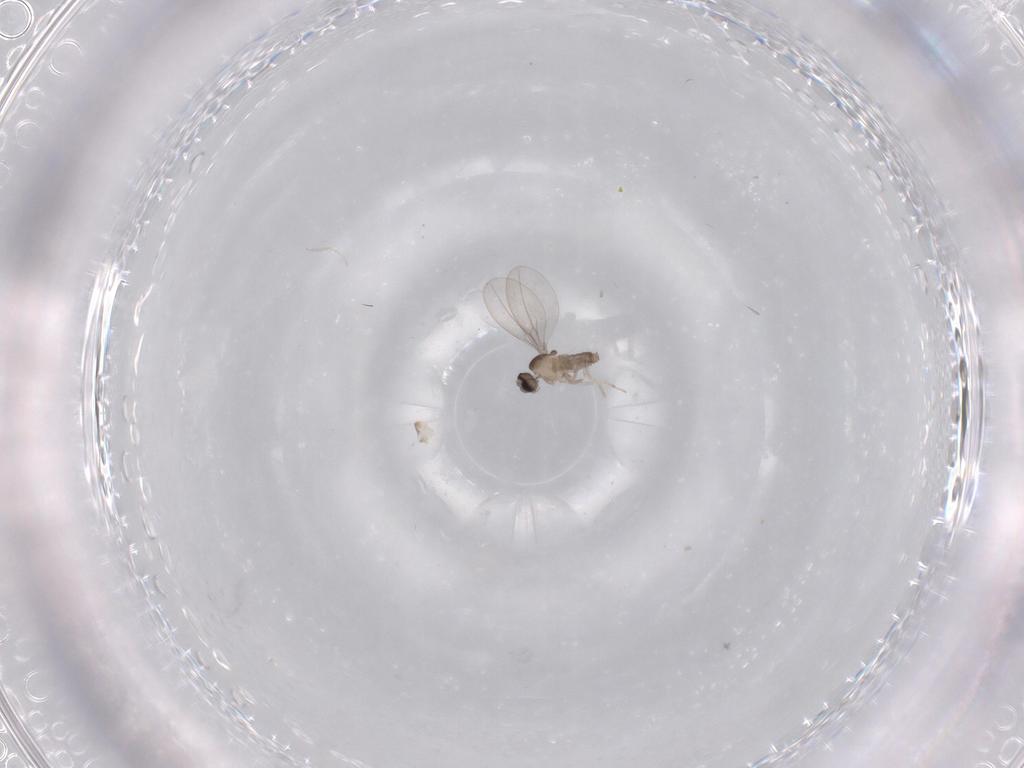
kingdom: Animalia
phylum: Arthropoda
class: Insecta
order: Diptera
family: Cecidomyiidae
